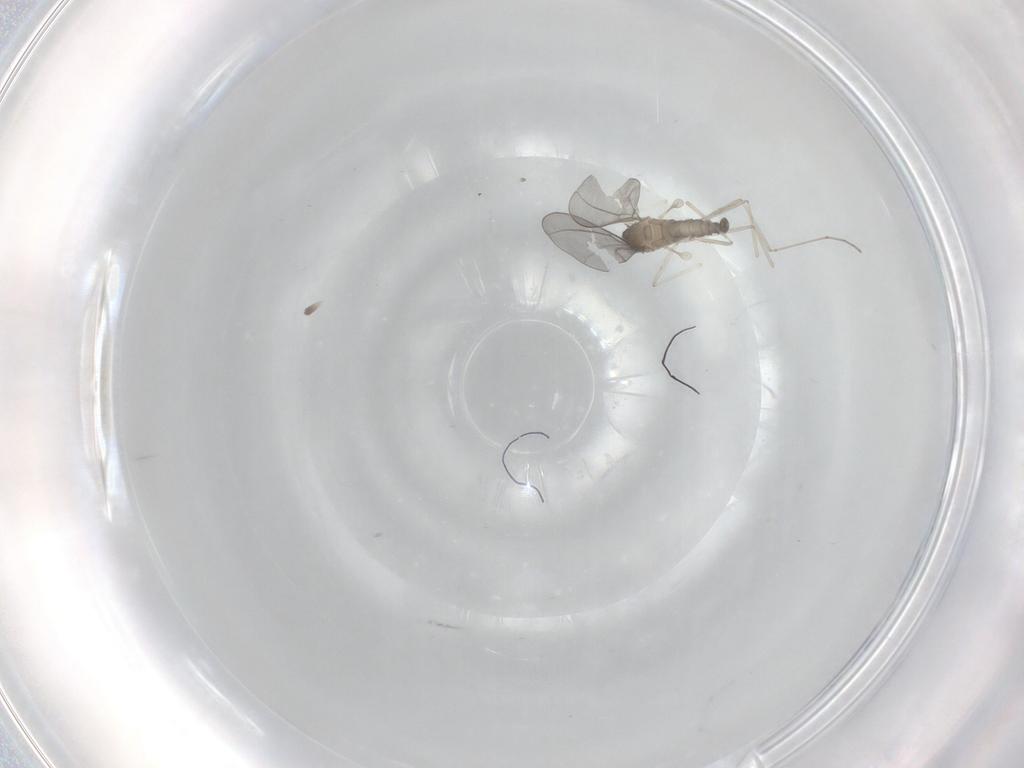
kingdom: Animalia
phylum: Arthropoda
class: Insecta
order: Diptera
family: Cecidomyiidae
